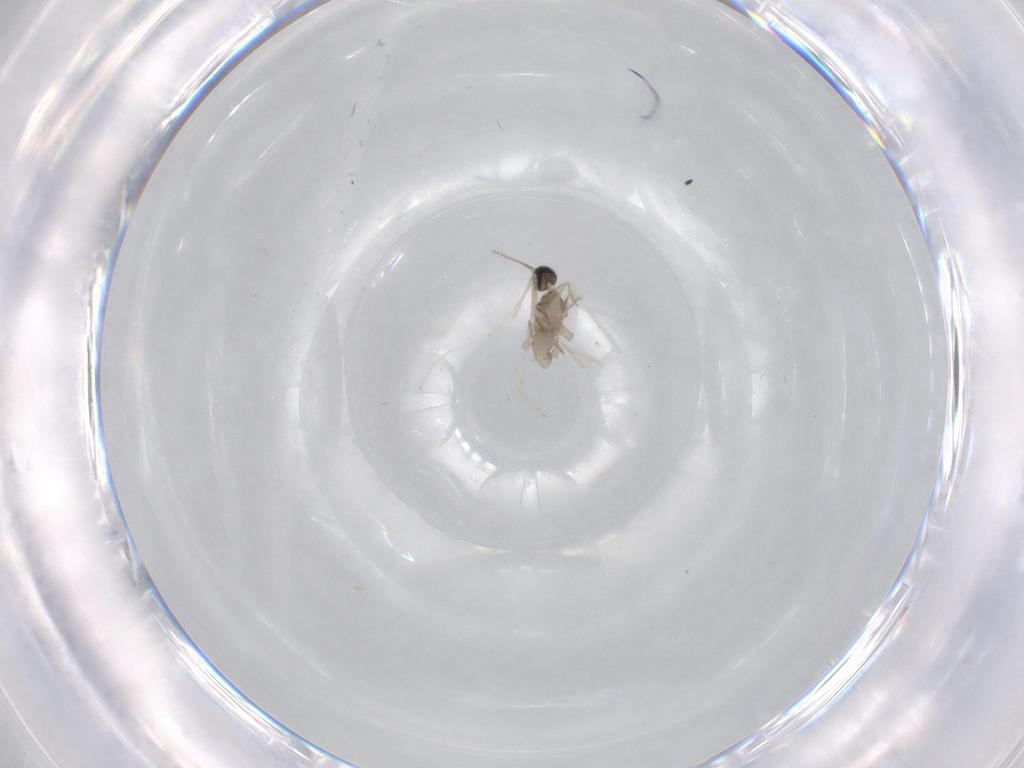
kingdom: Animalia
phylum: Arthropoda
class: Insecta
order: Diptera
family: Cecidomyiidae
